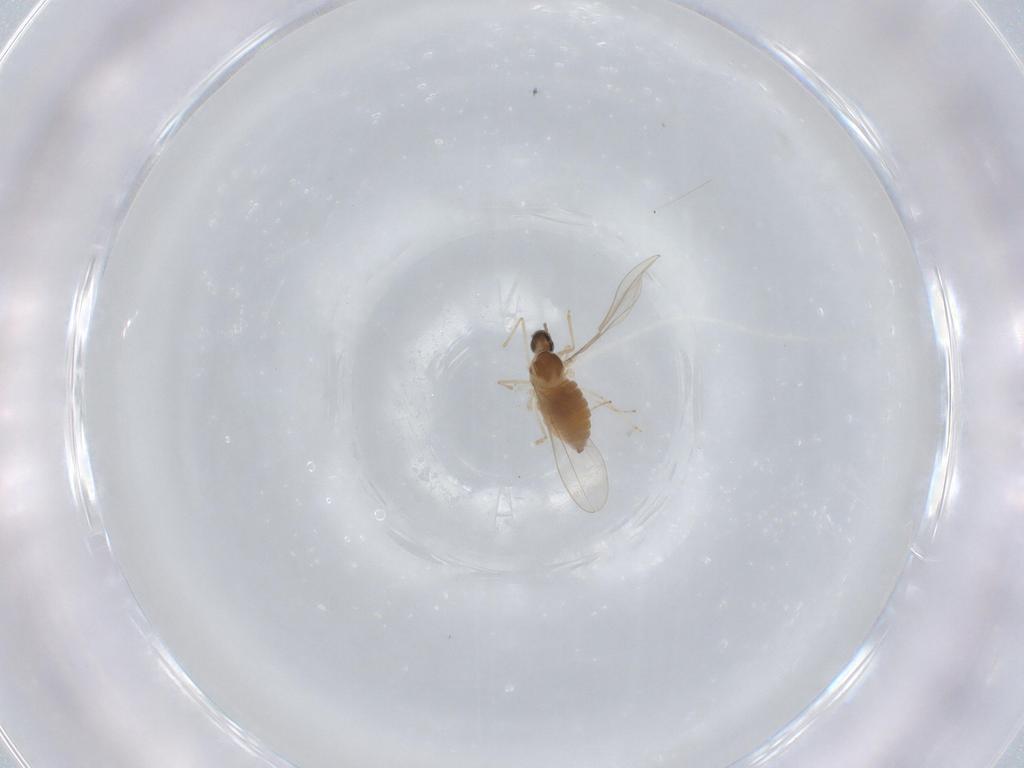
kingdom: Animalia
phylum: Arthropoda
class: Insecta
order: Diptera
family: Cecidomyiidae
